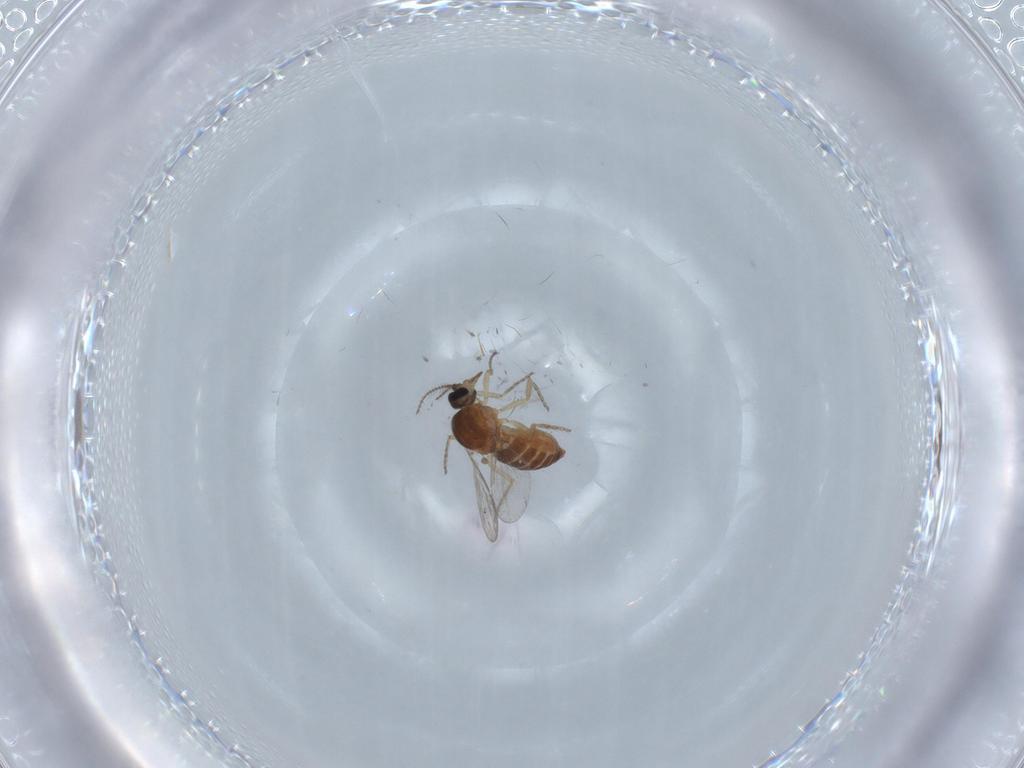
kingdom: Animalia
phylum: Arthropoda
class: Insecta
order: Diptera
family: Ceratopogonidae
